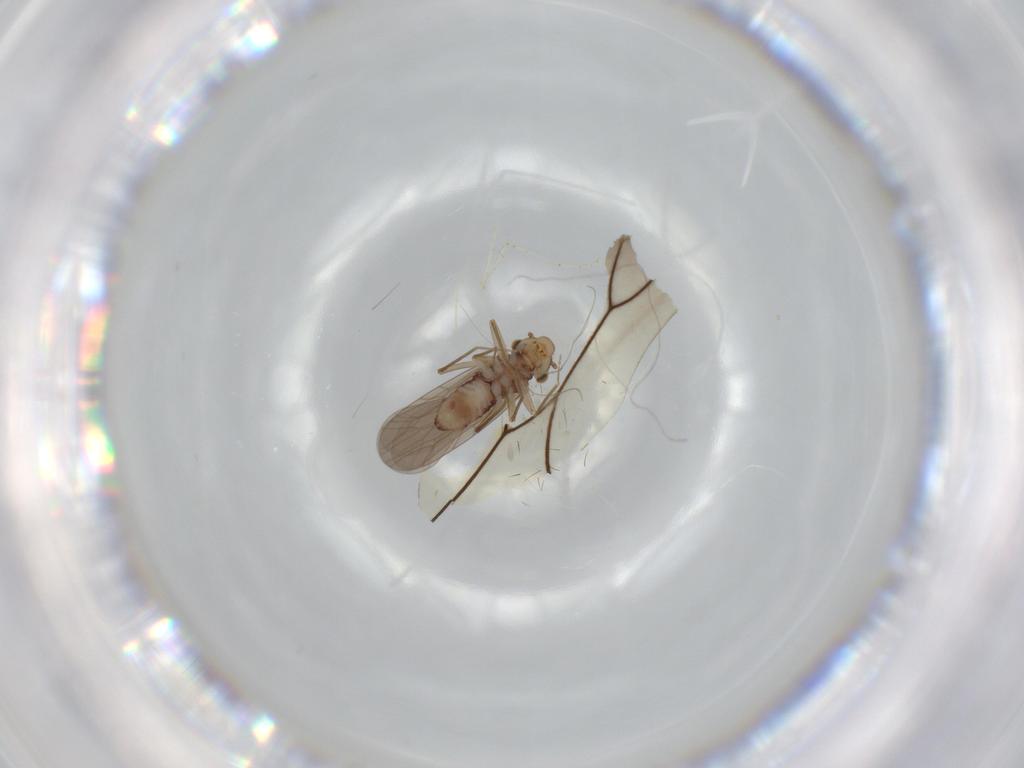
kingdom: Animalia
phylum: Arthropoda
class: Insecta
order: Psocodea
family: Lepidopsocidae
